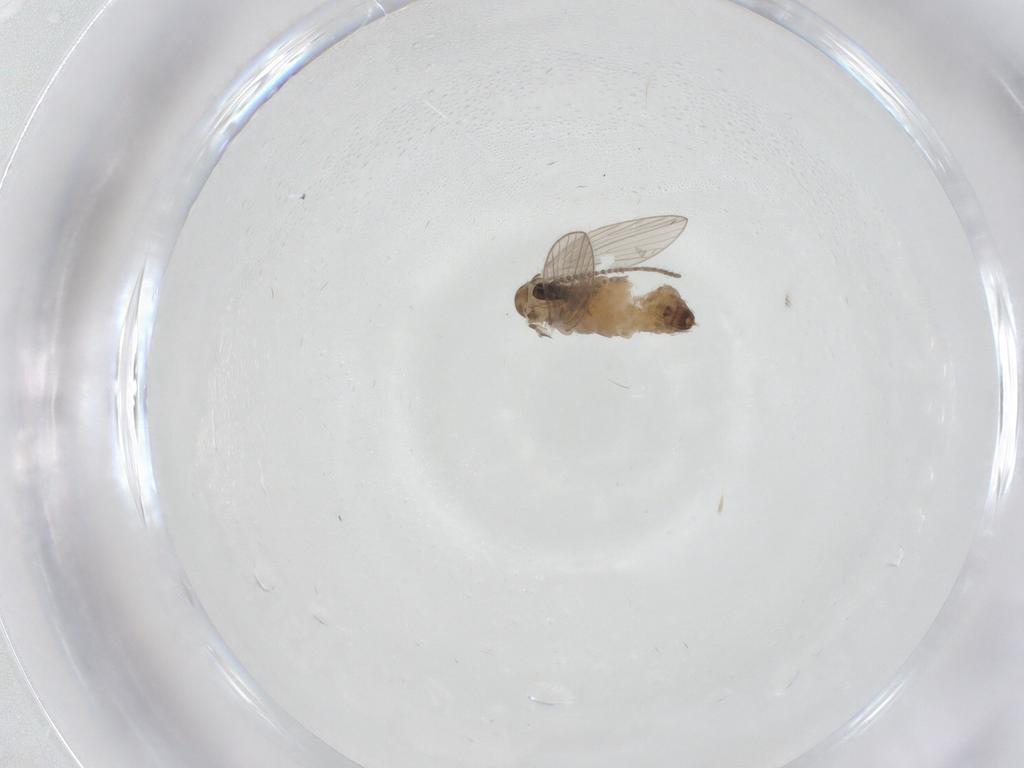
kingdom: Animalia
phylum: Arthropoda
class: Insecta
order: Diptera
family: Psychodidae
